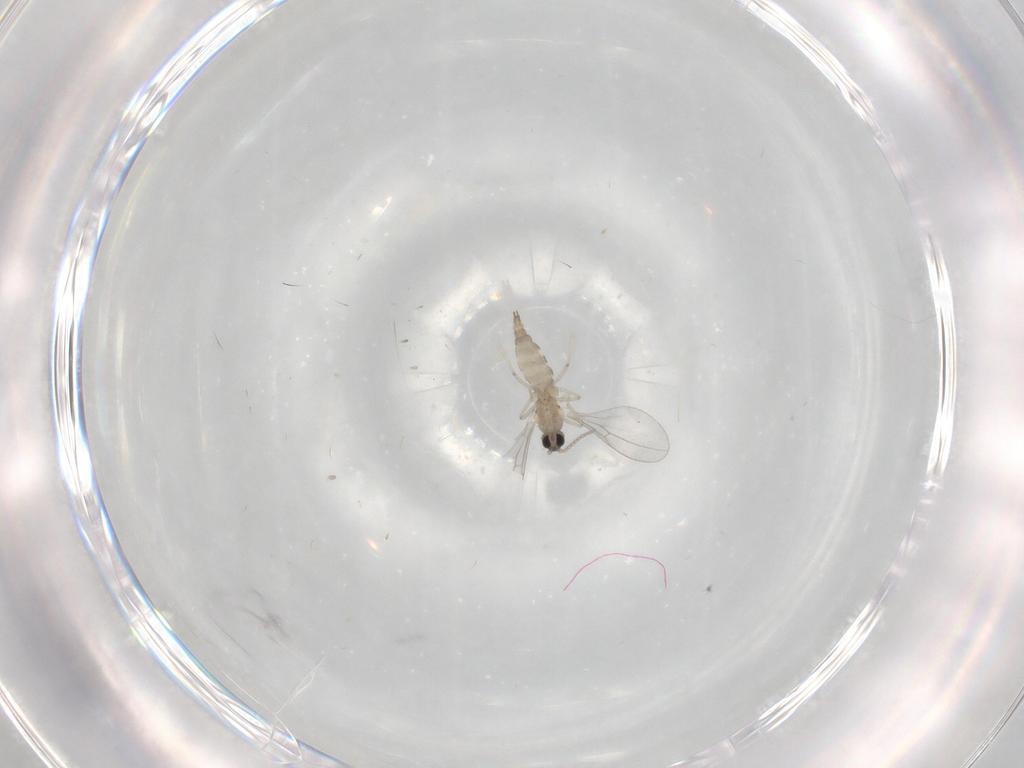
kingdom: Animalia
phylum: Arthropoda
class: Insecta
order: Diptera
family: Cecidomyiidae
